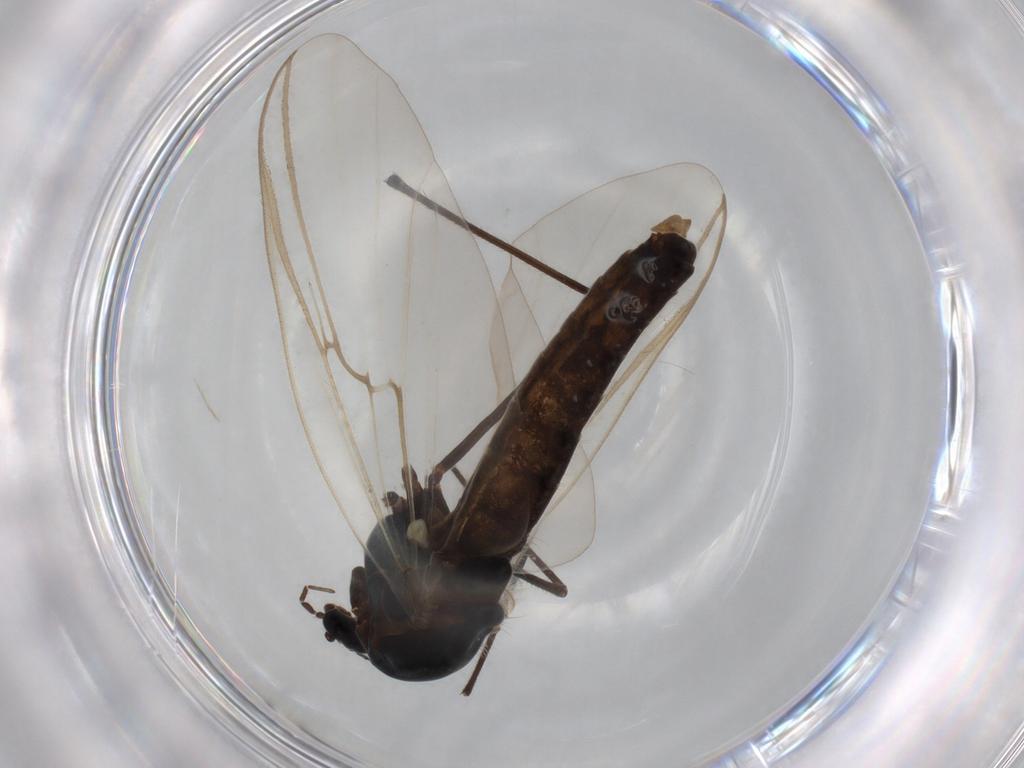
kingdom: Animalia
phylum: Arthropoda
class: Insecta
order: Diptera
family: Chironomidae
